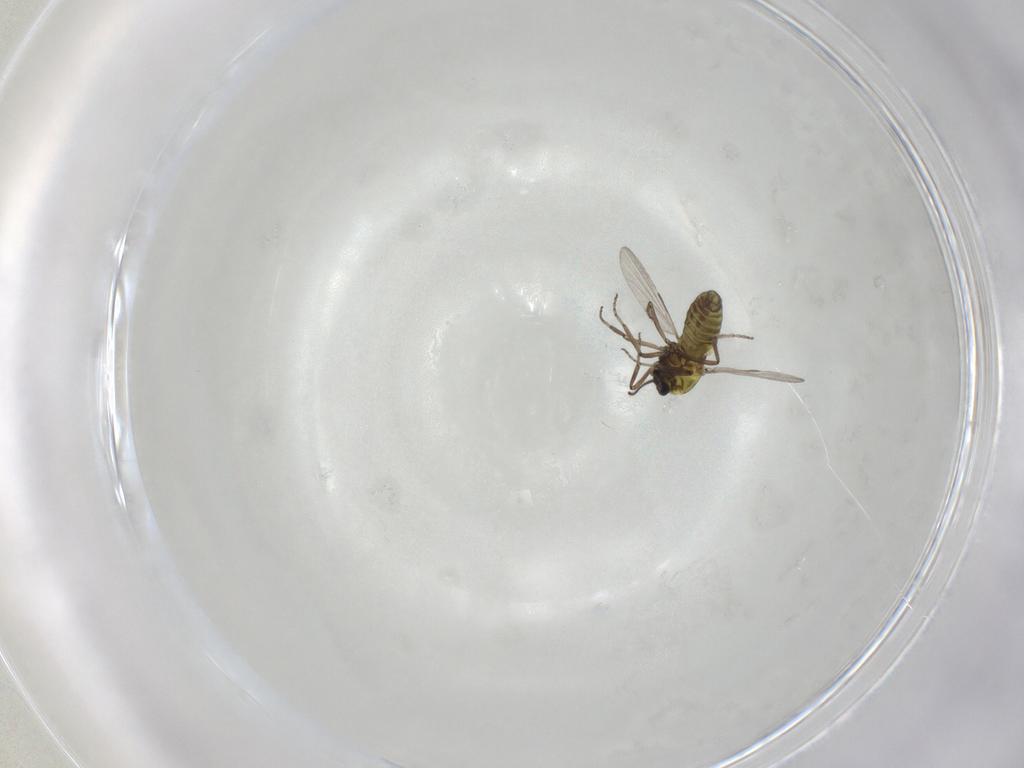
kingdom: Animalia
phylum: Arthropoda
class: Insecta
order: Diptera
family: Ceratopogonidae
